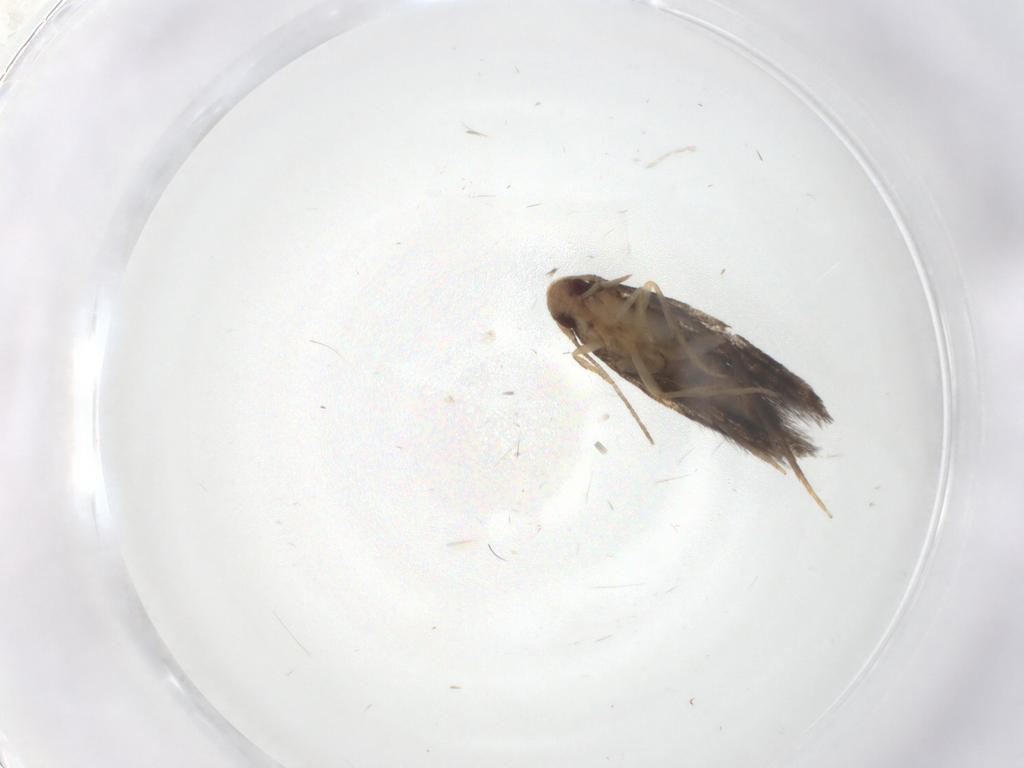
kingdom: Animalia
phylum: Arthropoda
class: Insecta
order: Lepidoptera
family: Gelechiidae
